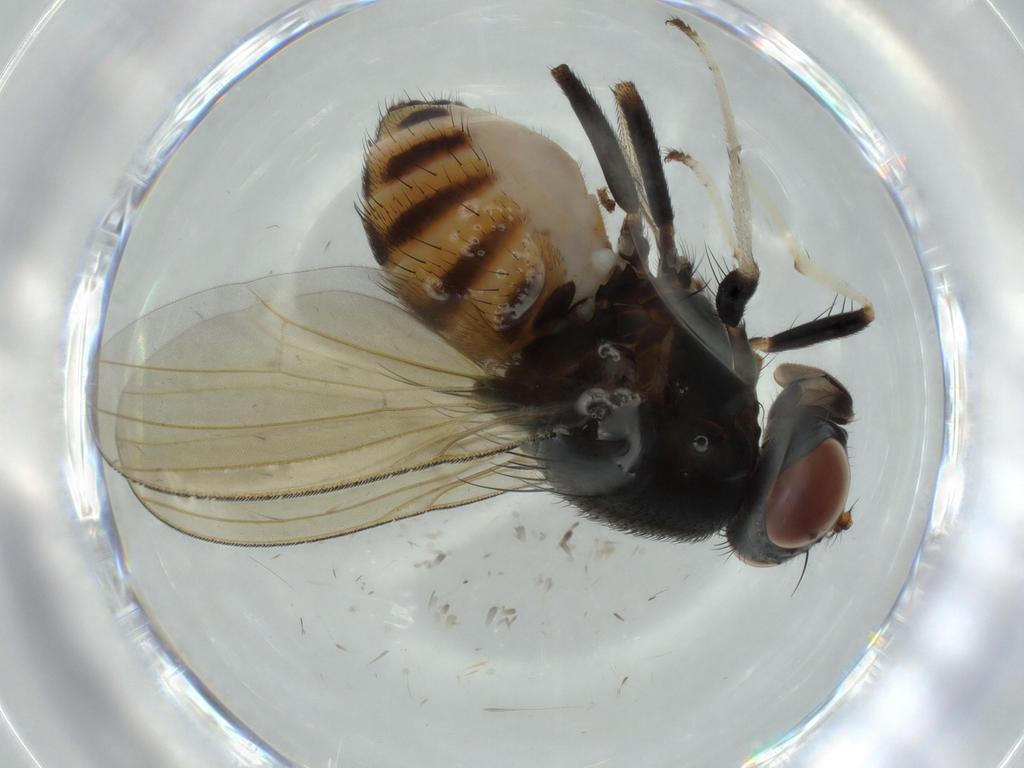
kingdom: Animalia
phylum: Arthropoda
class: Insecta
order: Diptera
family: Lauxaniidae
